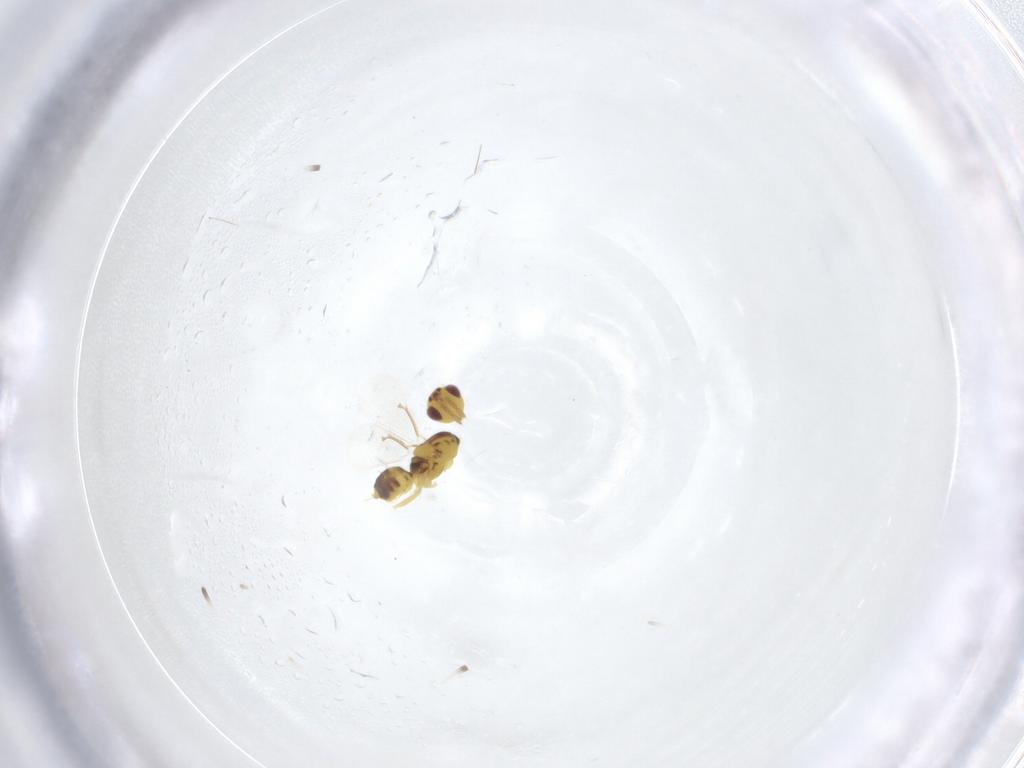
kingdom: Animalia
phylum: Arthropoda
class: Insecta
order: Hymenoptera
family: Eulophidae
